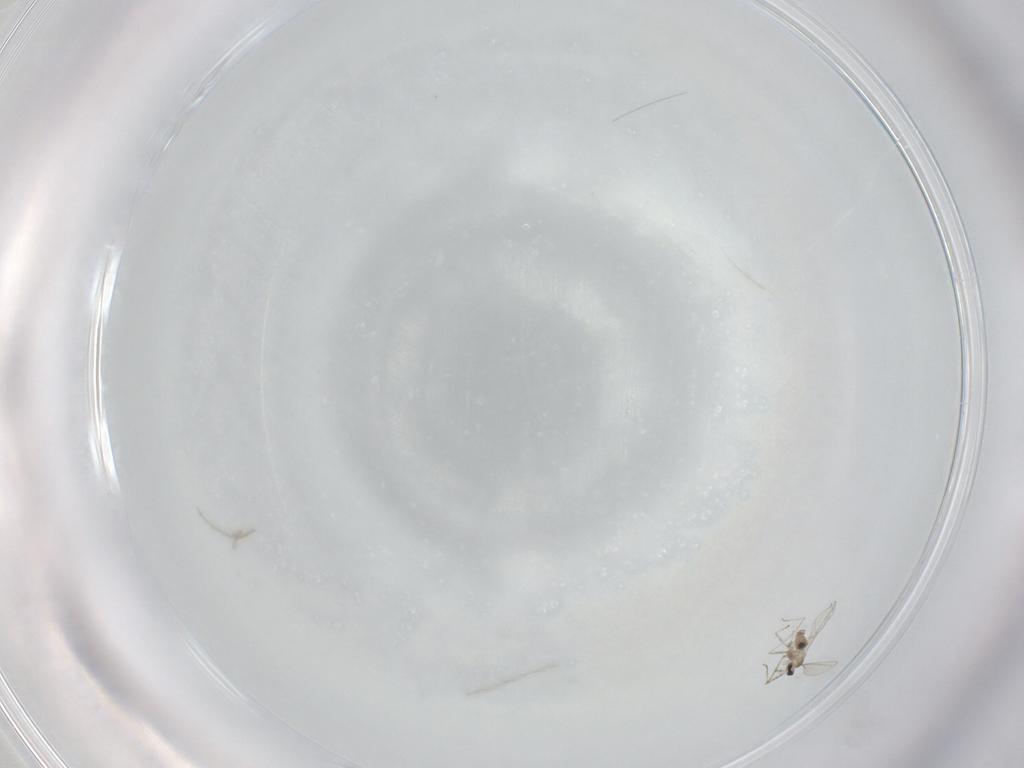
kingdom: Animalia
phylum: Arthropoda
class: Insecta
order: Diptera
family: Cecidomyiidae
